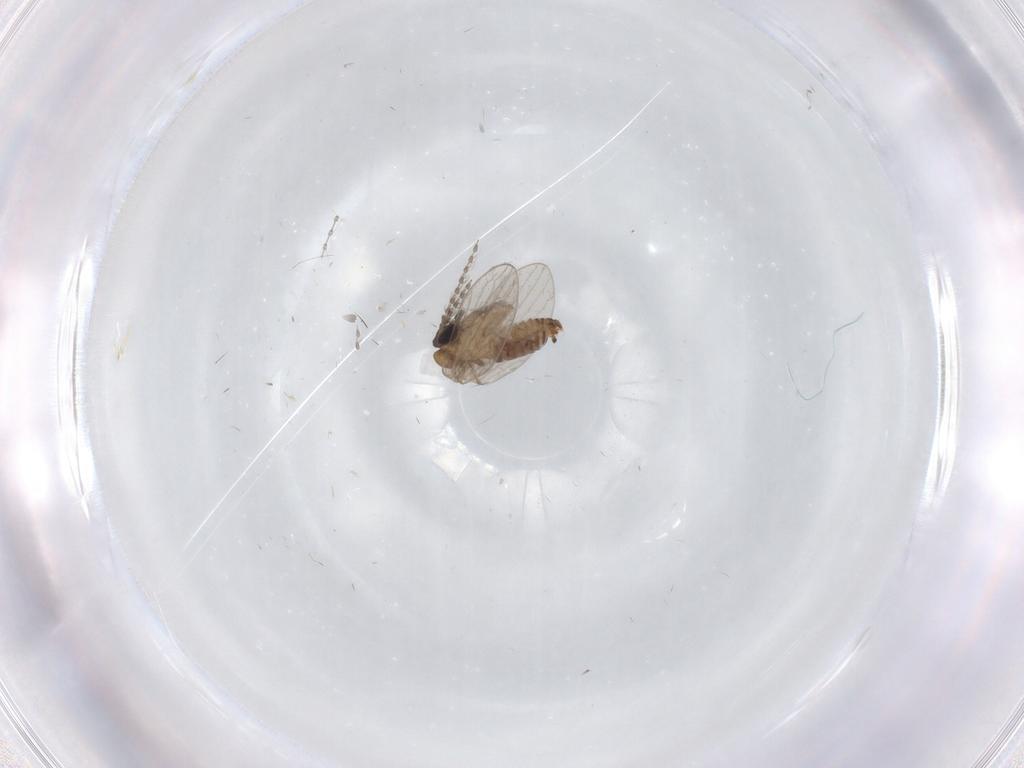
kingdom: Animalia
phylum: Arthropoda
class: Insecta
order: Diptera
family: Cecidomyiidae
